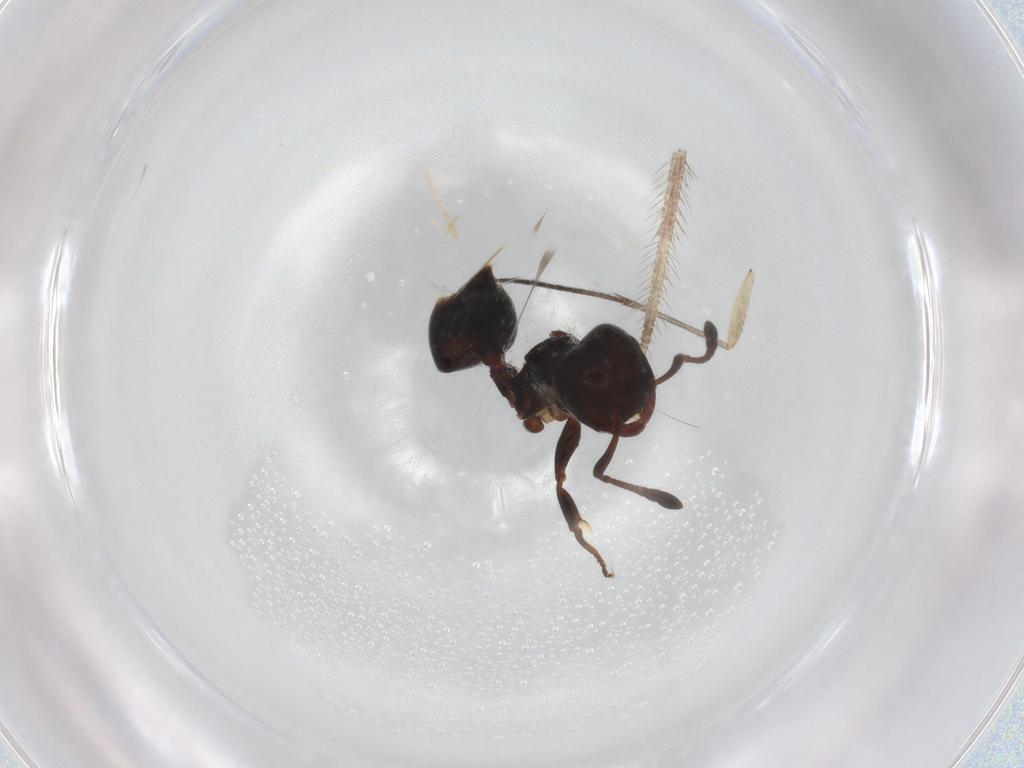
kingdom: Animalia
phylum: Arthropoda
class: Insecta
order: Hymenoptera
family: Formicidae
